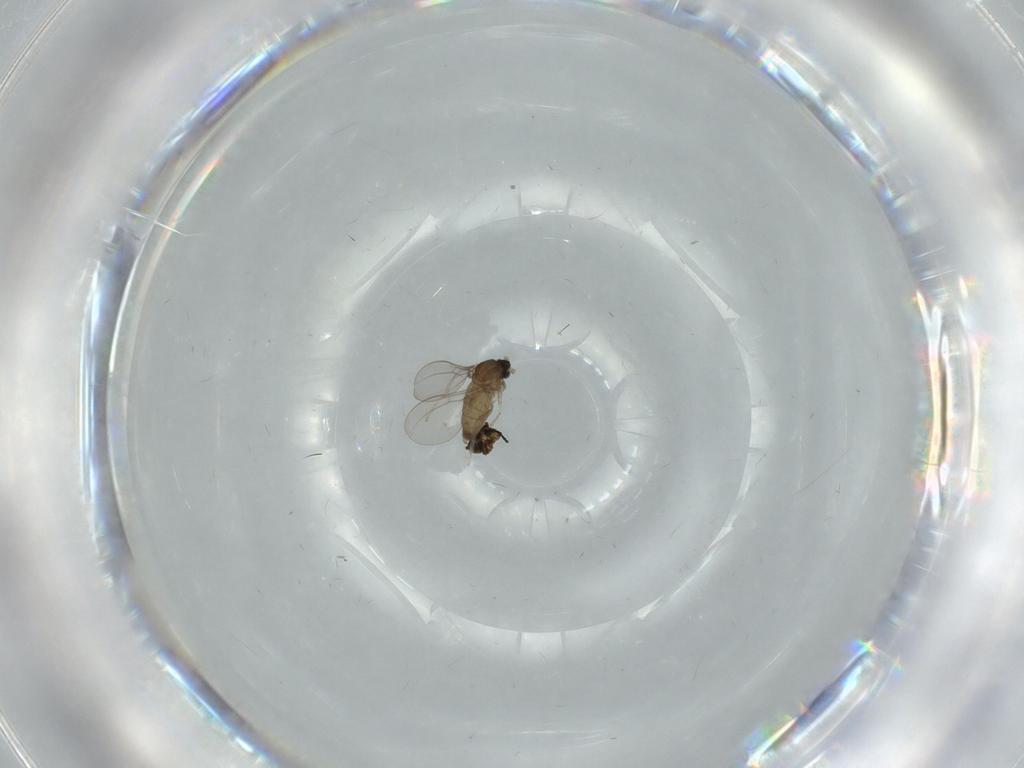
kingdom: Animalia
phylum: Arthropoda
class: Insecta
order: Diptera
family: Cecidomyiidae
